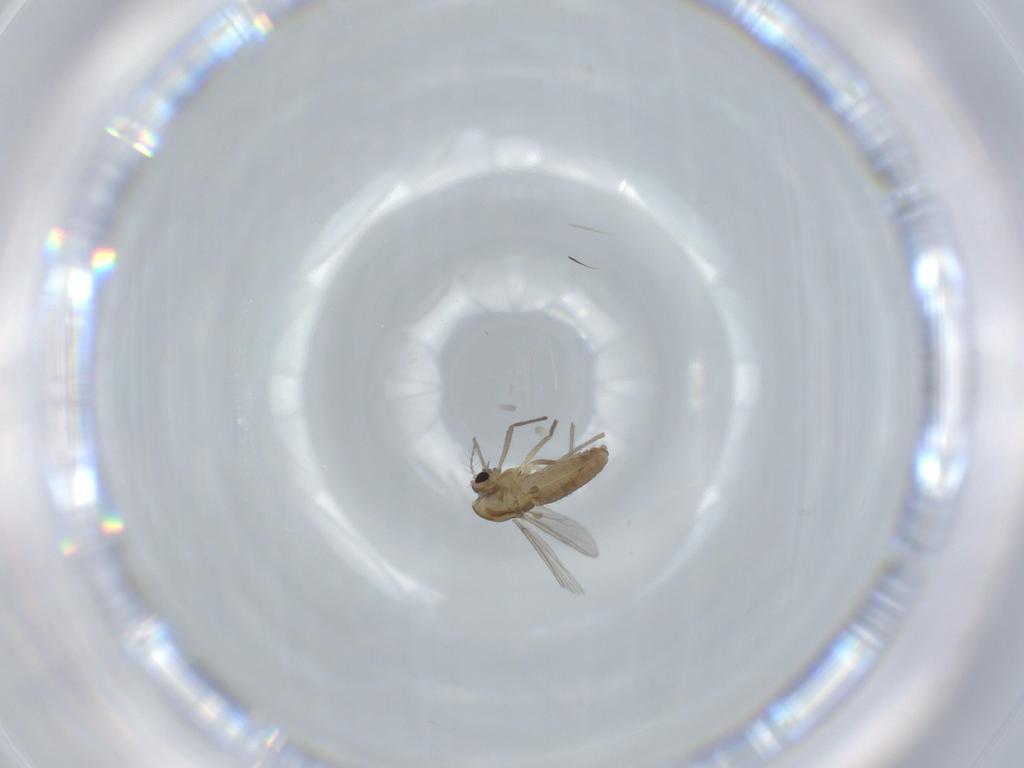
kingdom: Animalia
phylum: Arthropoda
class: Insecta
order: Diptera
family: Chironomidae
